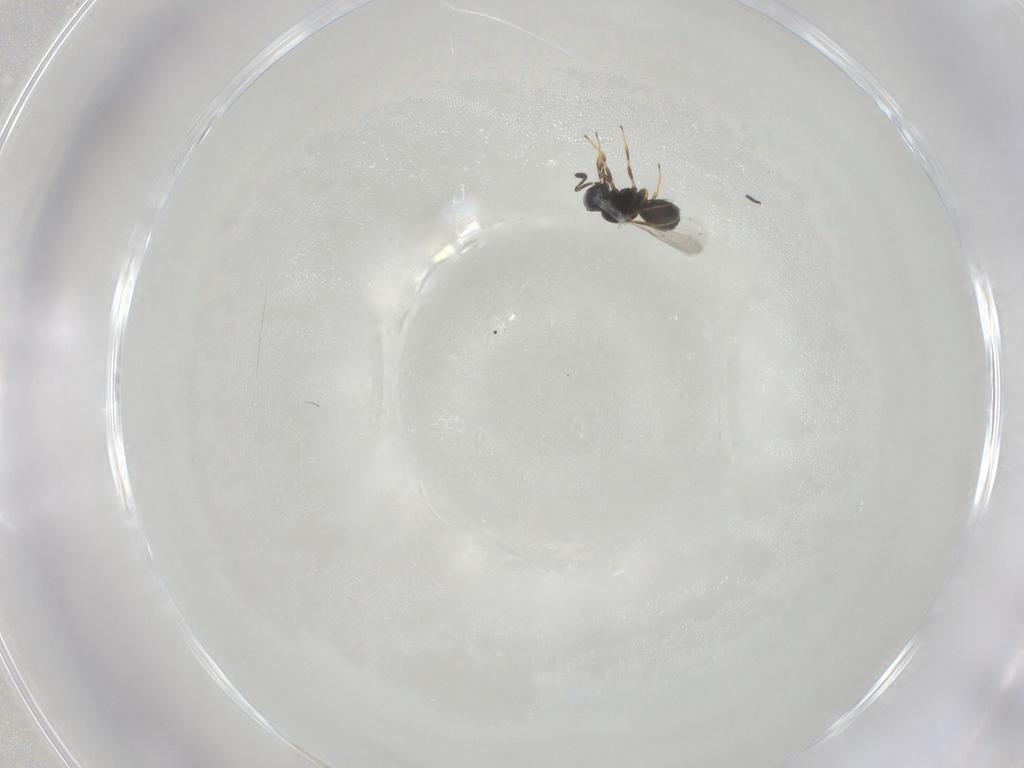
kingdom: Animalia
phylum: Arthropoda
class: Insecta
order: Hymenoptera
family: Scelionidae
